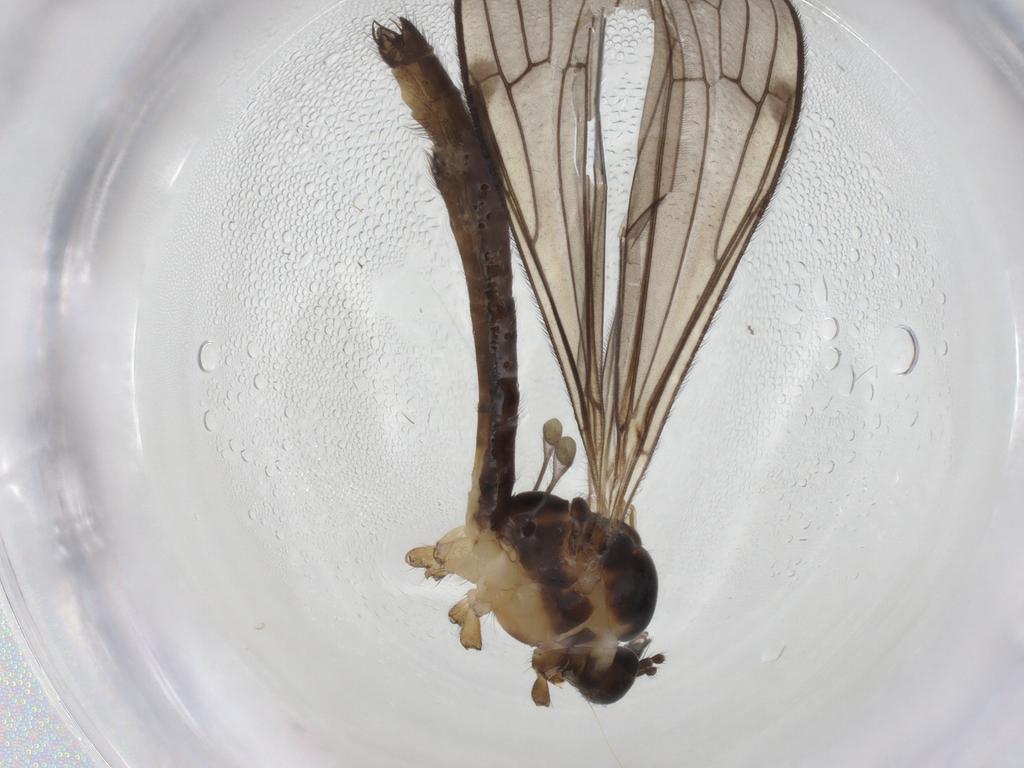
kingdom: Animalia
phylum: Arthropoda
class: Insecta
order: Diptera
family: Limoniidae
